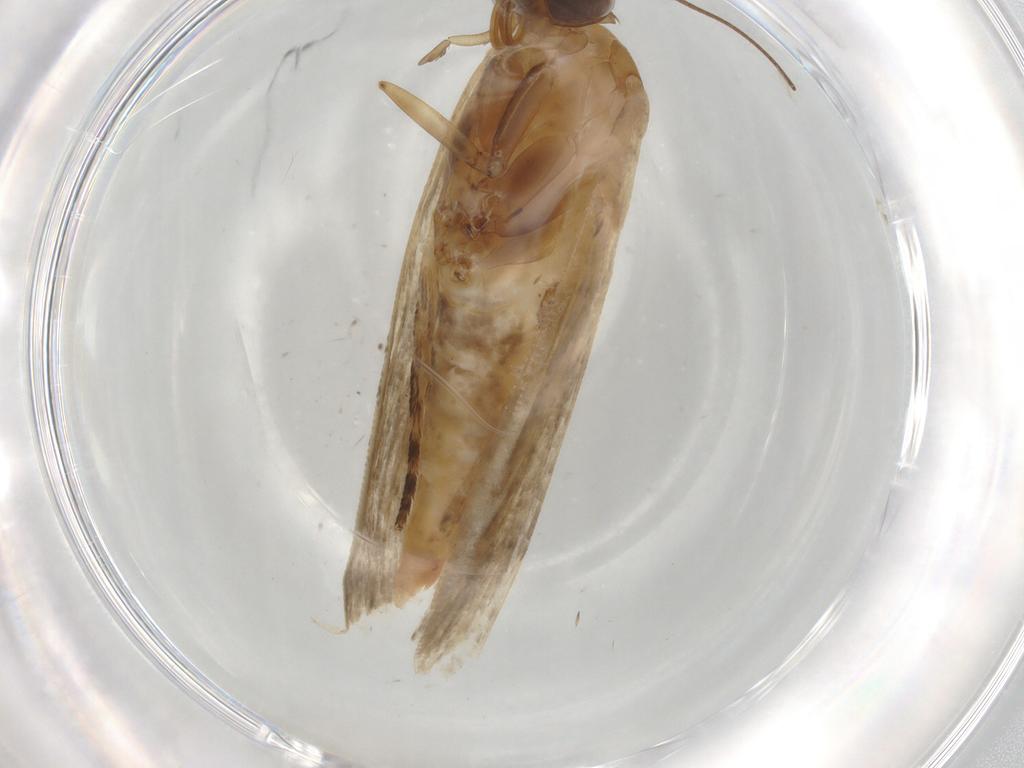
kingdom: Animalia
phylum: Arthropoda
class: Insecta
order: Lepidoptera
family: Pyralidae
